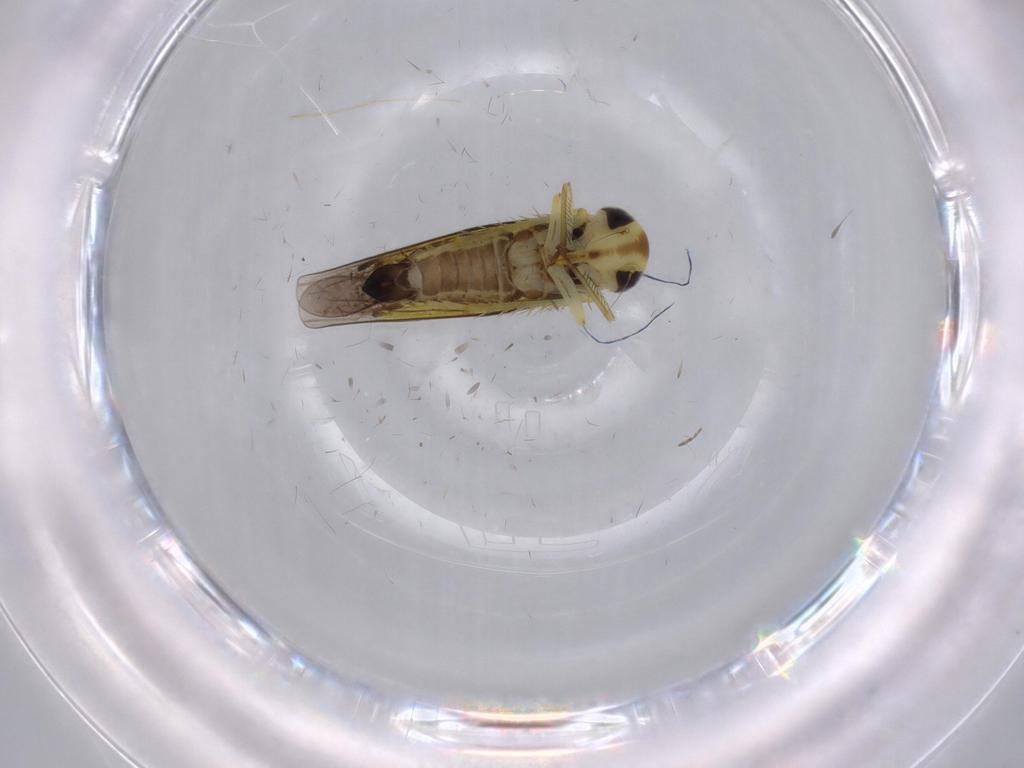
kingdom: Animalia
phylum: Arthropoda
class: Insecta
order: Hemiptera
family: Cicadellidae
